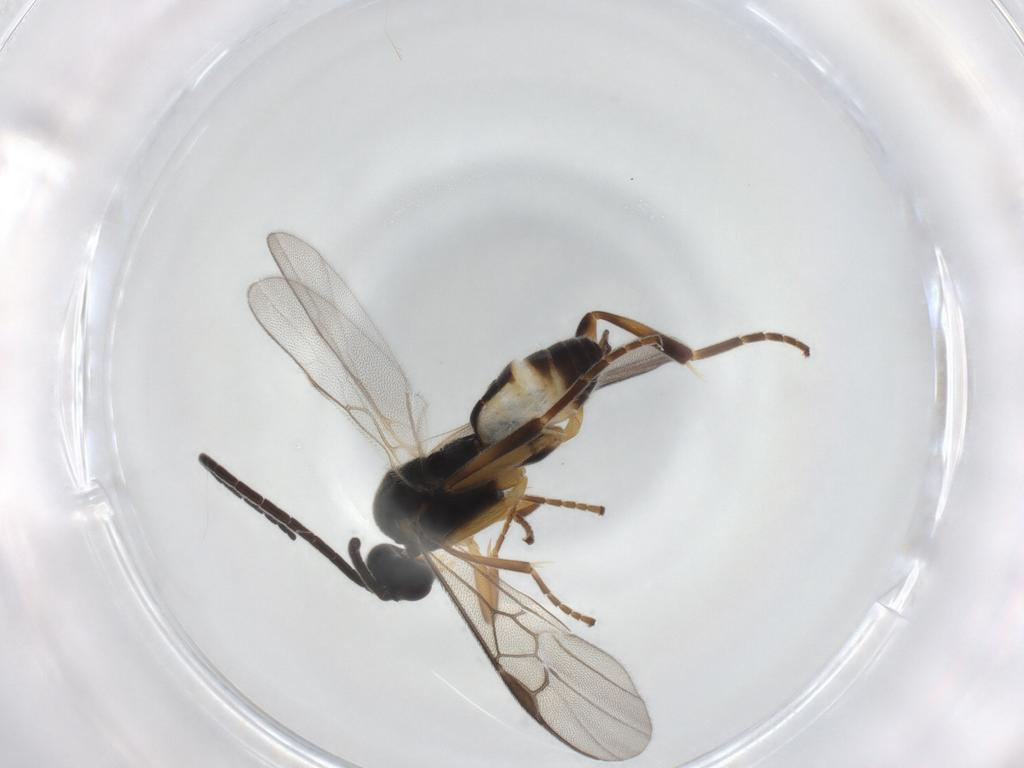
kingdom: Animalia
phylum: Arthropoda
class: Insecta
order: Hymenoptera
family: Braconidae
